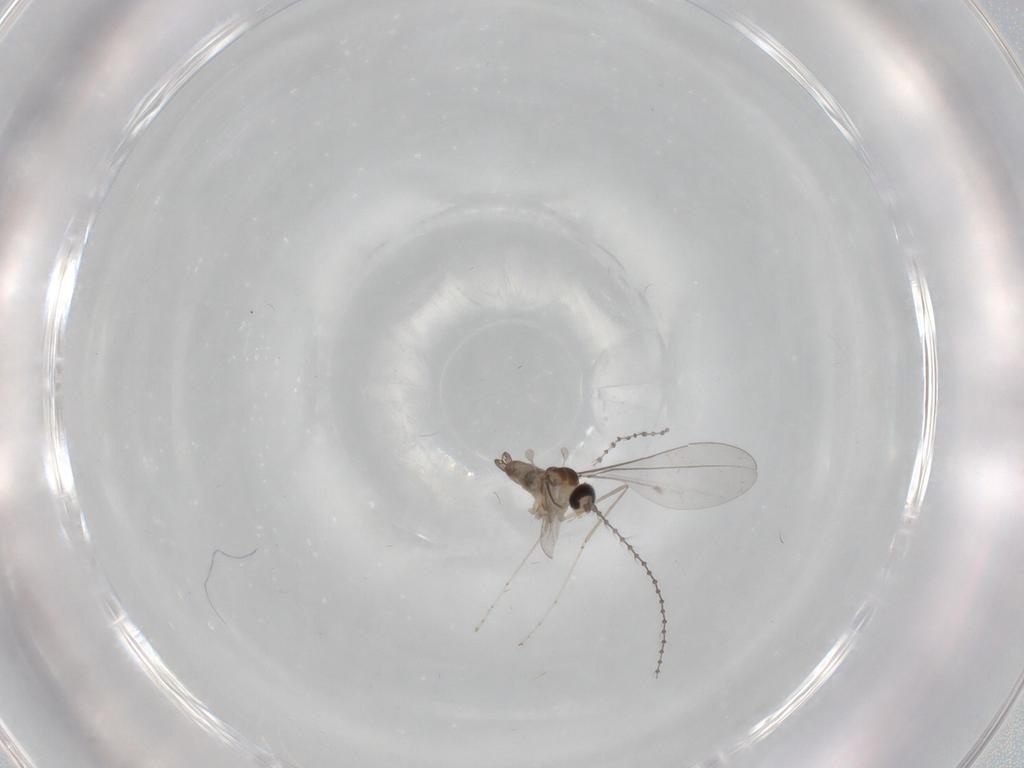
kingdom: Animalia
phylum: Arthropoda
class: Insecta
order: Diptera
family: Cecidomyiidae
